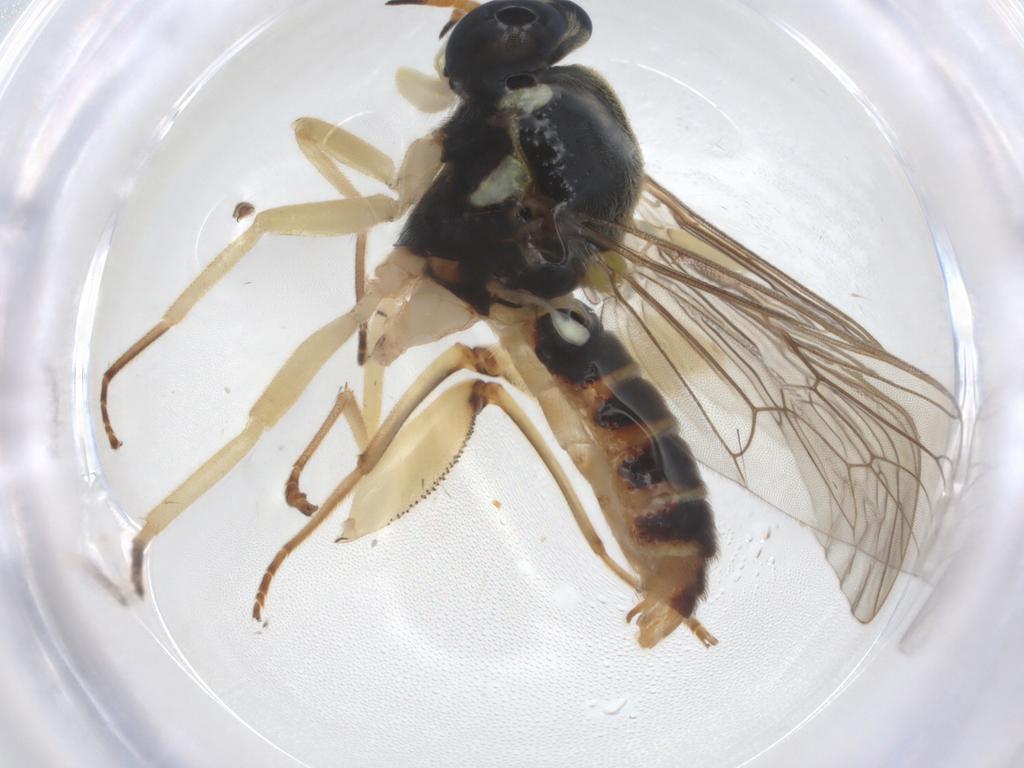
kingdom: Animalia
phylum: Arthropoda
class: Insecta
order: Diptera
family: Xylomyidae
